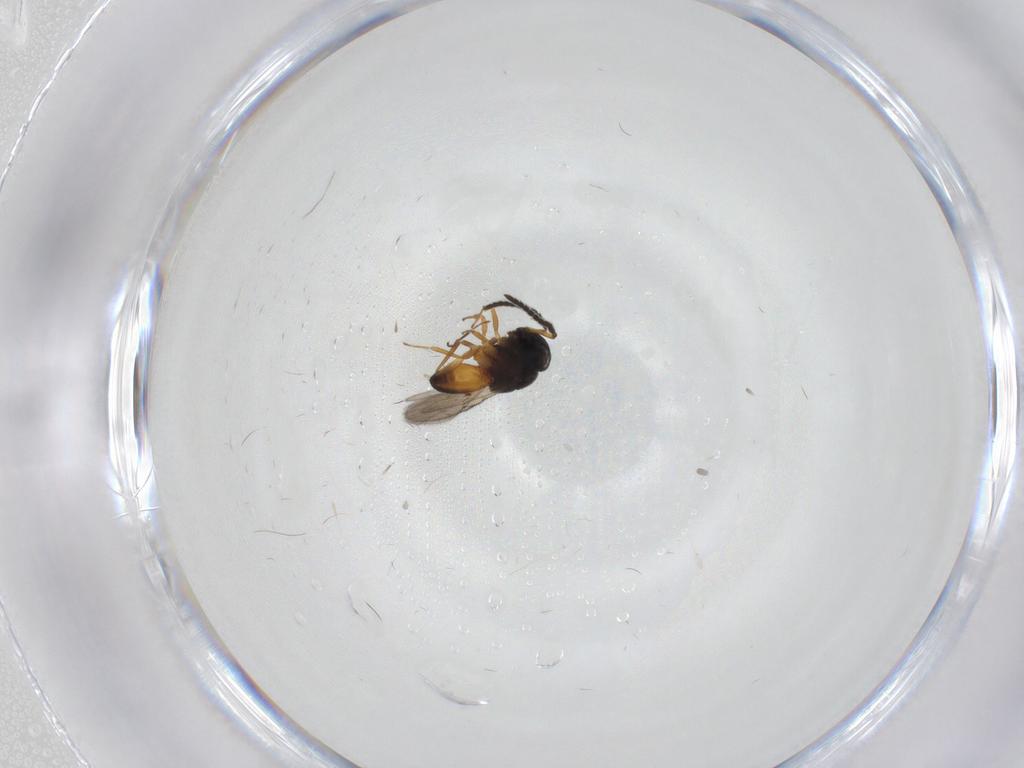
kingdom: Animalia
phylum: Arthropoda
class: Insecta
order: Hymenoptera
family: Scelionidae
